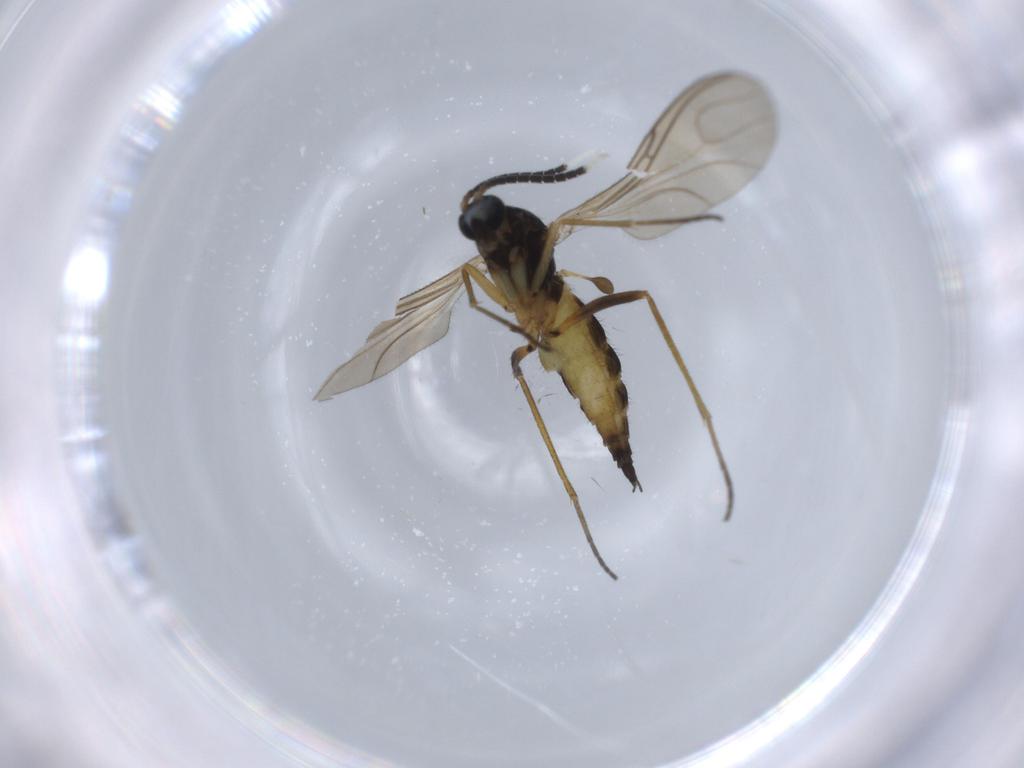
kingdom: Animalia
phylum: Arthropoda
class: Insecta
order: Diptera
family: Sciaridae
